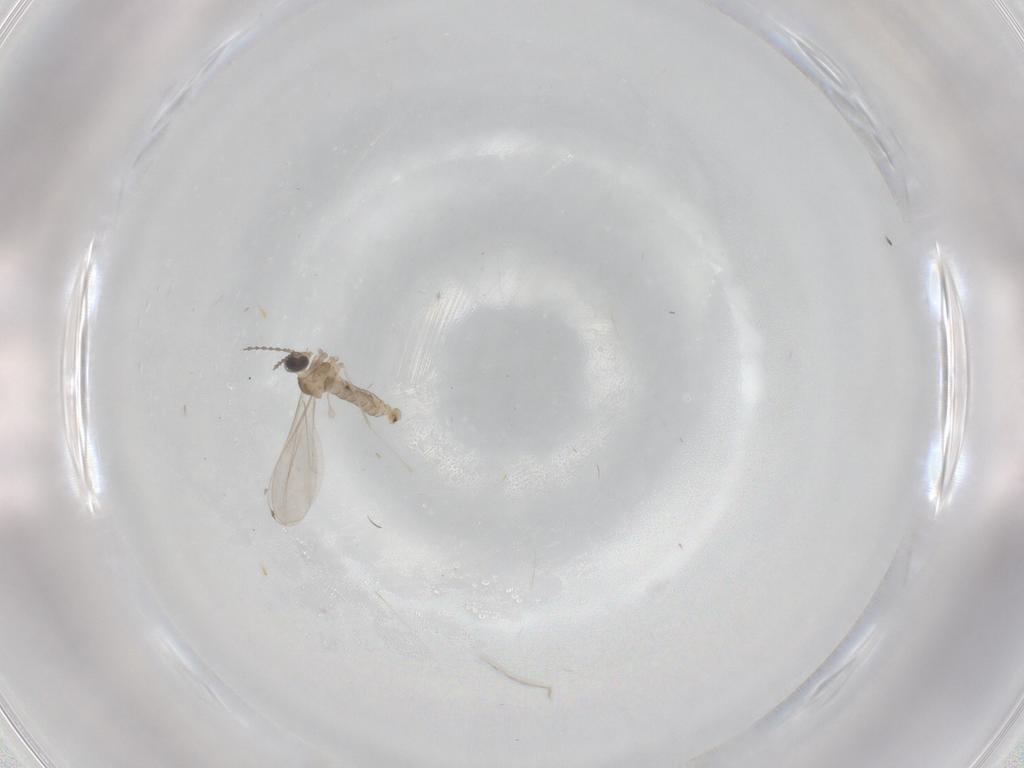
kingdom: Animalia
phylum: Arthropoda
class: Insecta
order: Diptera
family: Cecidomyiidae
